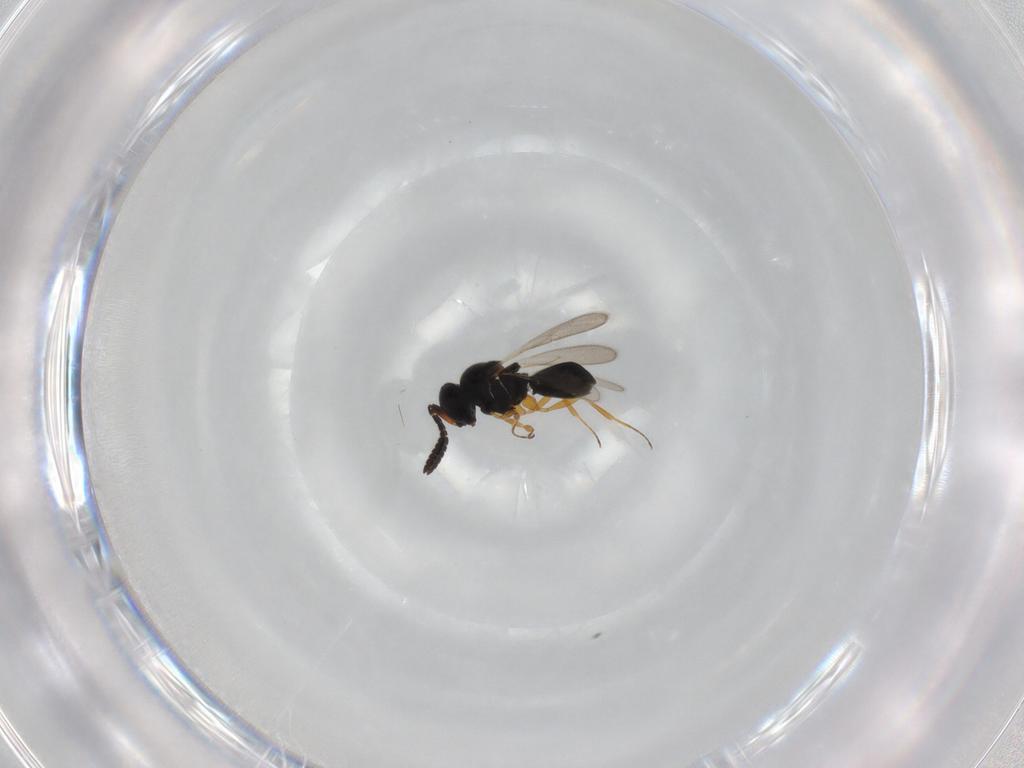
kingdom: Animalia
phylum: Arthropoda
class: Insecta
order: Hymenoptera
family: Scelionidae
